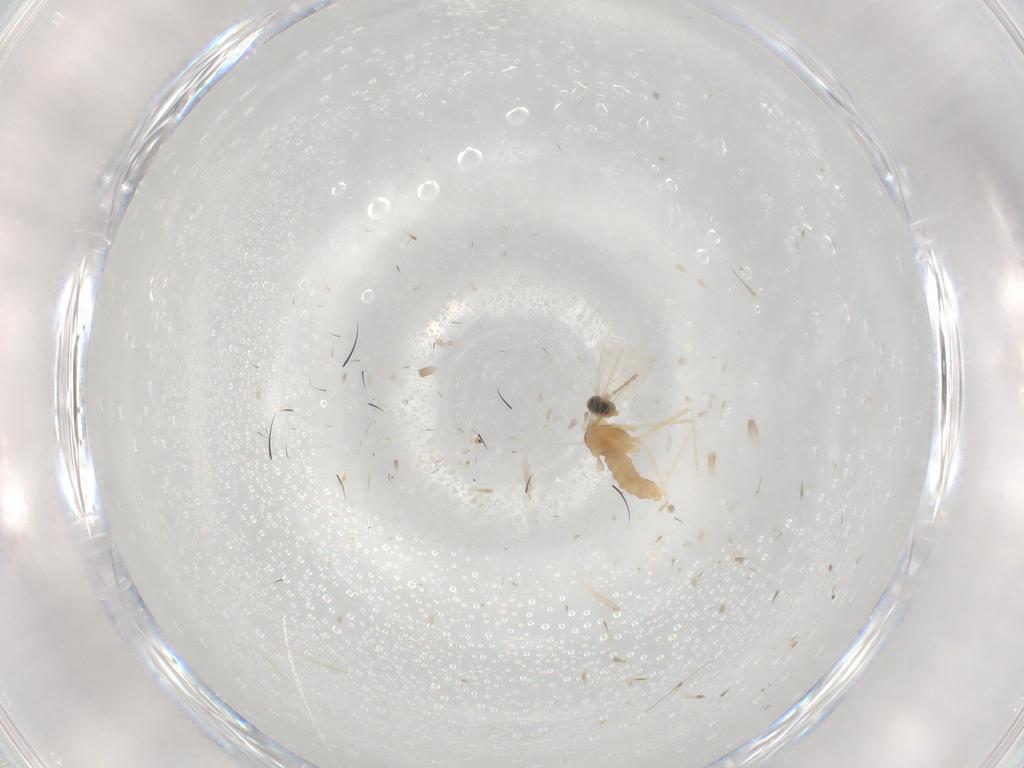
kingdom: Animalia
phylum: Arthropoda
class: Insecta
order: Diptera
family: Cecidomyiidae
